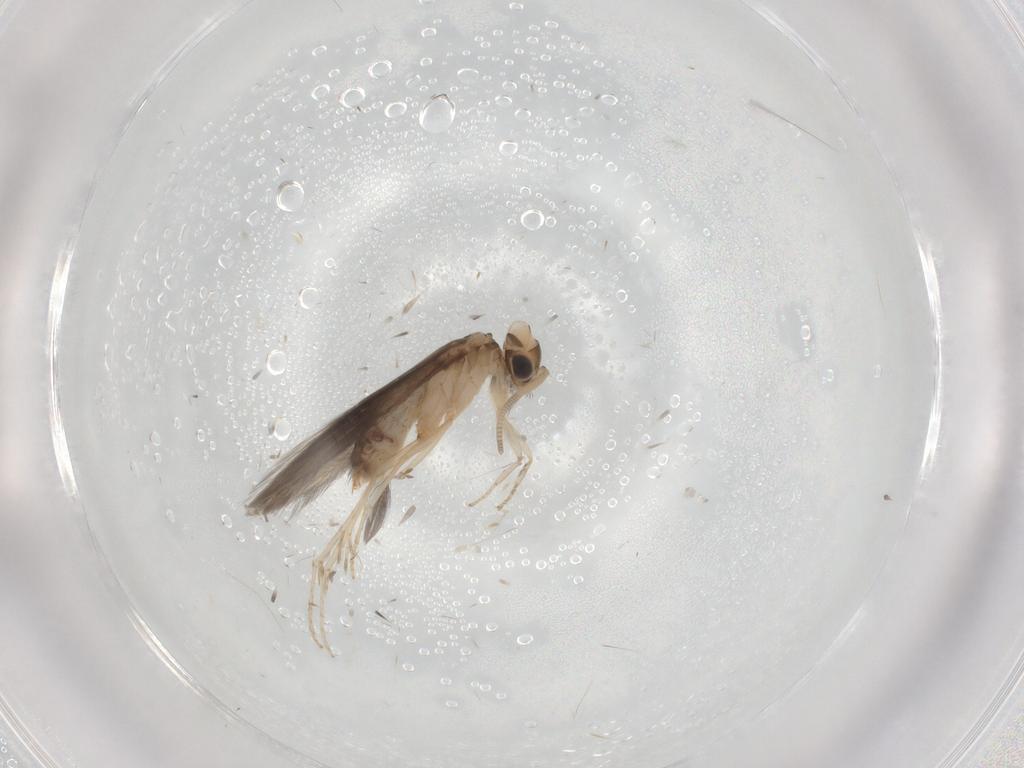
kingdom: Animalia
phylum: Arthropoda
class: Insecta
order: Trichoptera
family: Hydroptilidae
